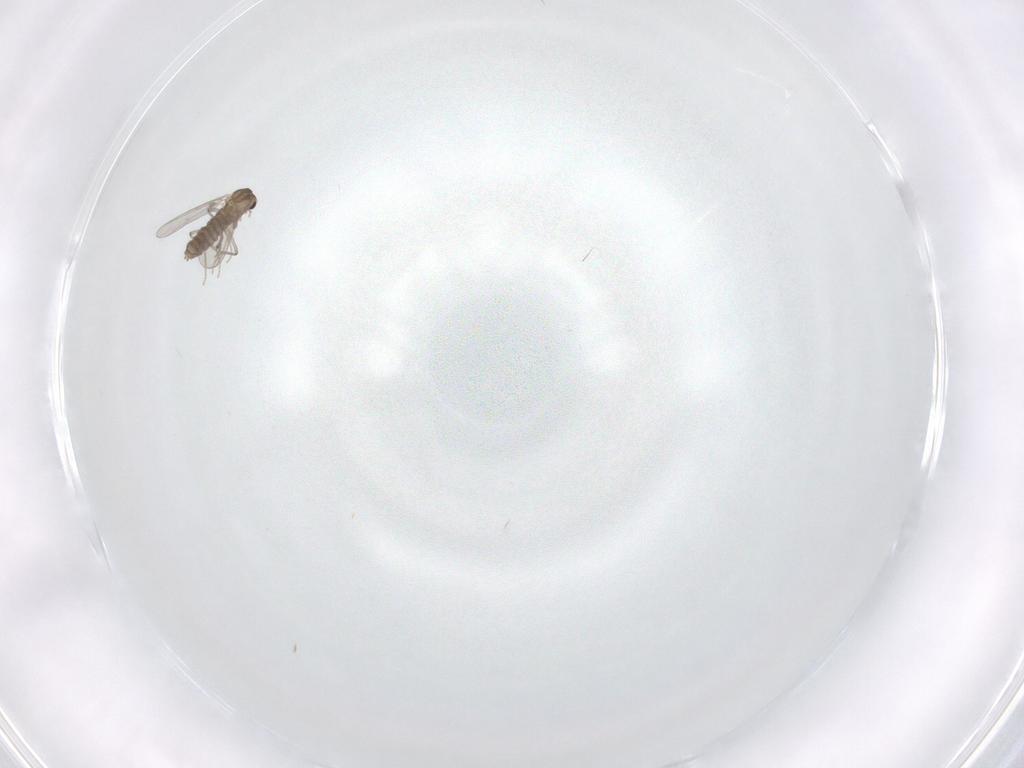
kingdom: Animalia
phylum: Arthropoda
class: Insecta
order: Diptera
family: Chironomidae
